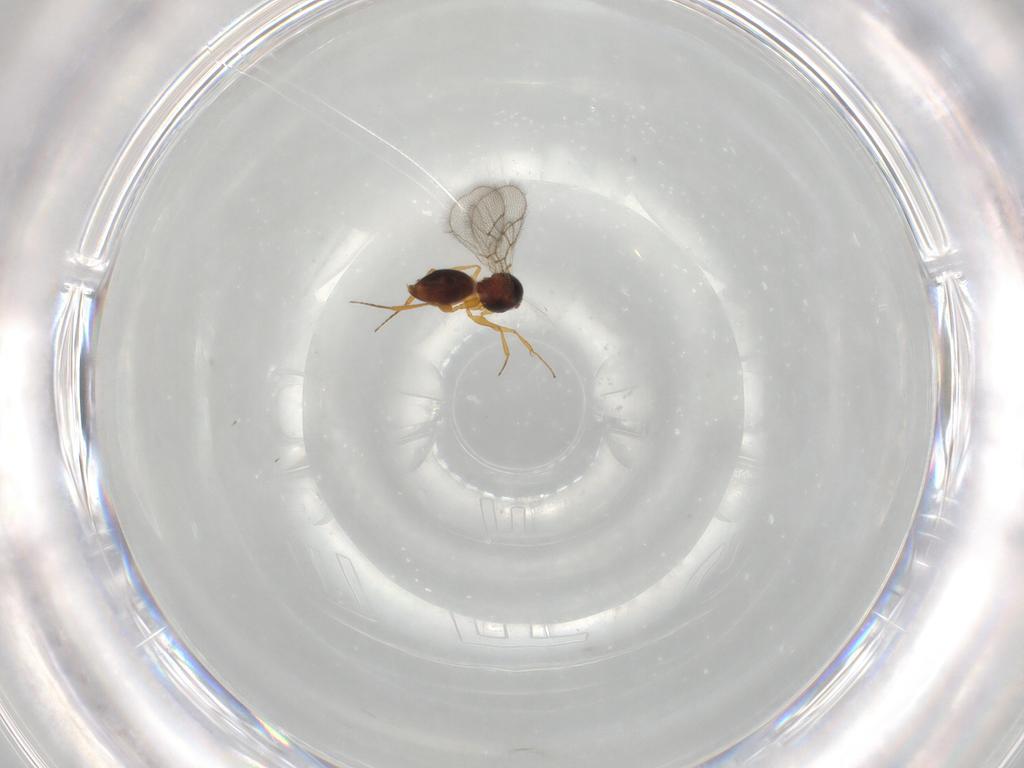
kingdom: Animalia
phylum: Arthropoda
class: Insecta
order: Hymenoptera
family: Figitidae
